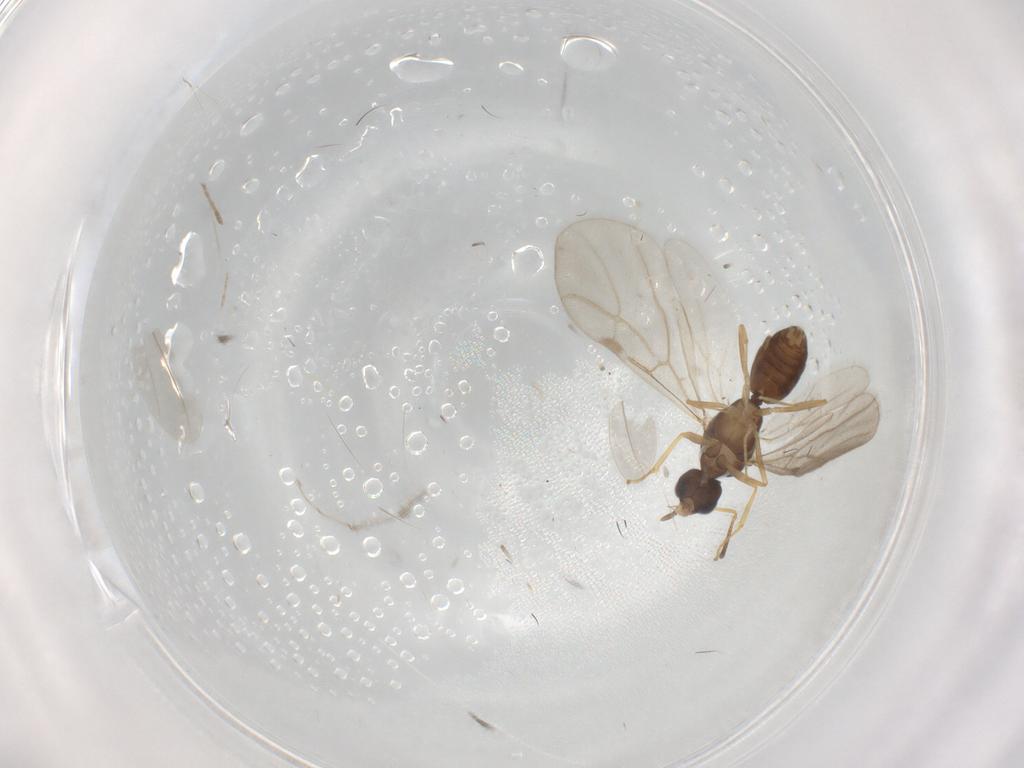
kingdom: Animalia
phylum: Arthropoda
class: Insecta
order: Hymenoptera
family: Formicidae
